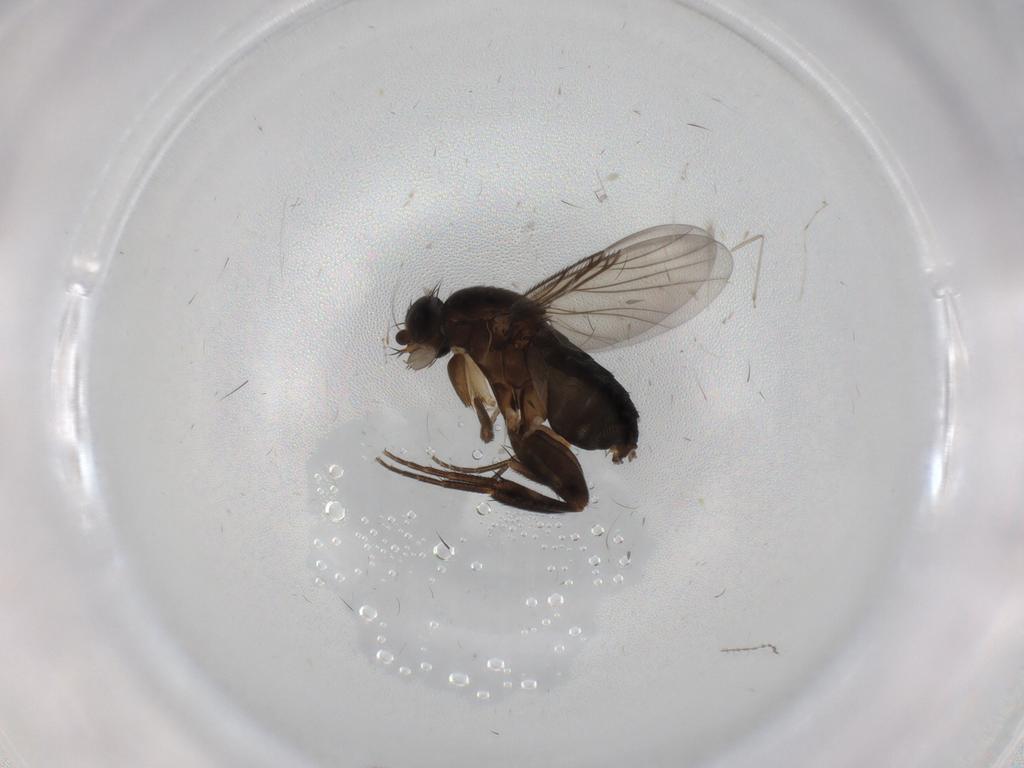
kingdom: Animalia
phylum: Arthropoda
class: Insecta
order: Diptera
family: Phoridae
